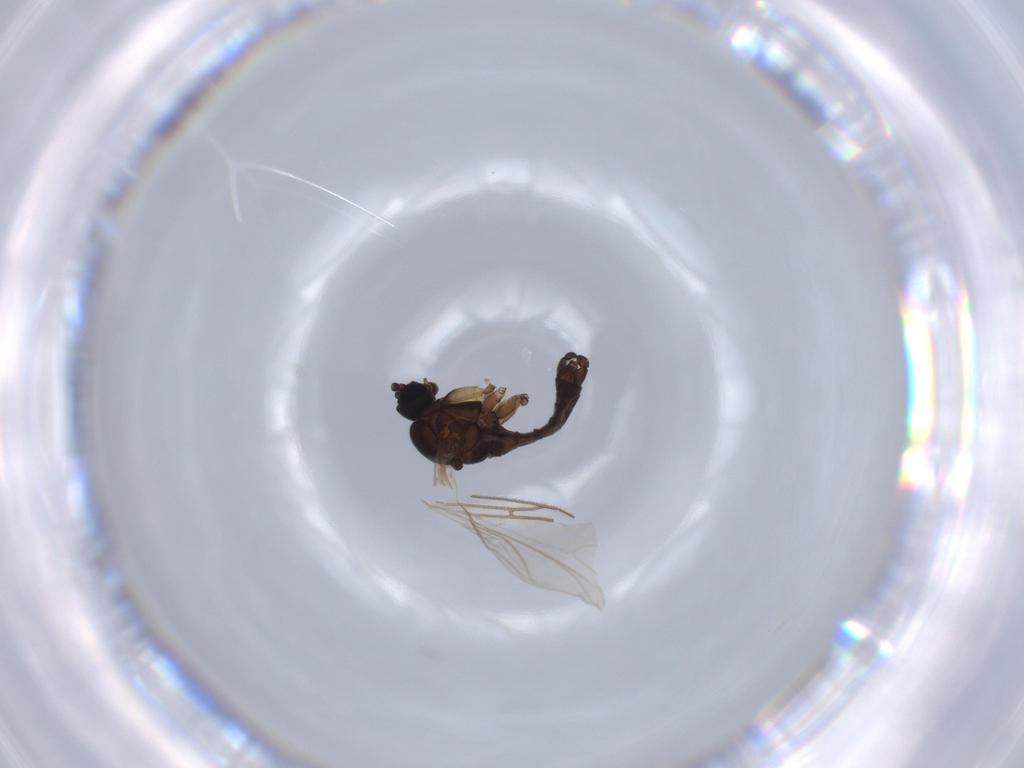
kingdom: Animalia
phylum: Arthropoda
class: Insecta
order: Diptera
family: Sciaridae
